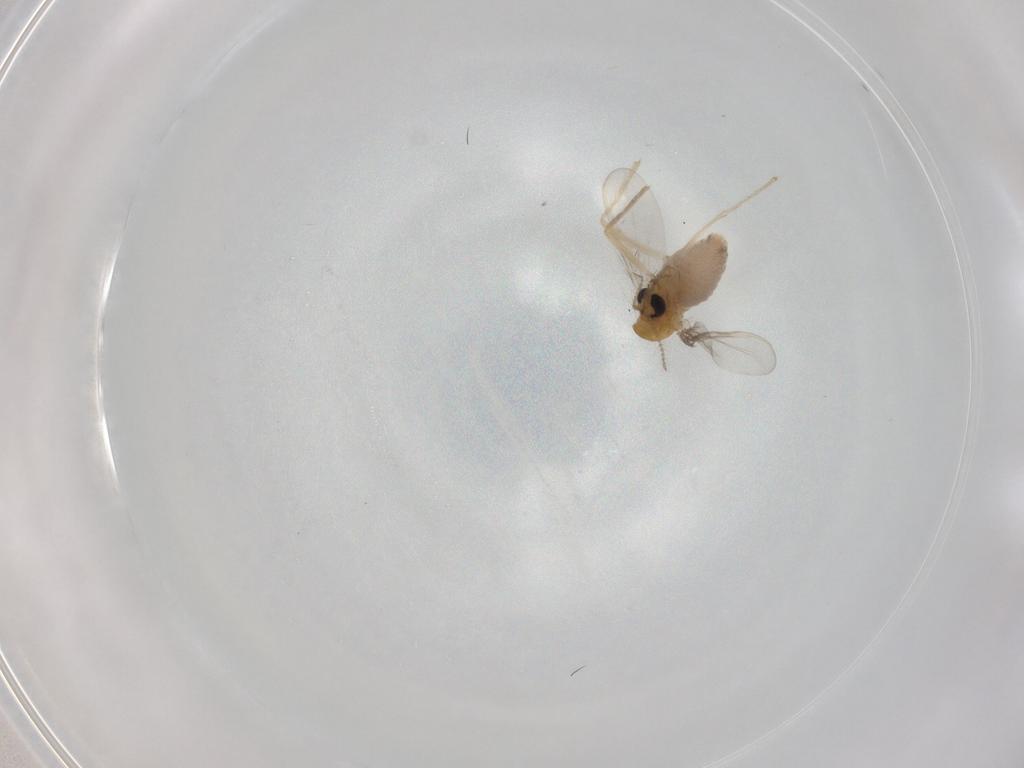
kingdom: Animalia
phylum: Arthropoda
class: Insecta
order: Diptera
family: Chironomidae
